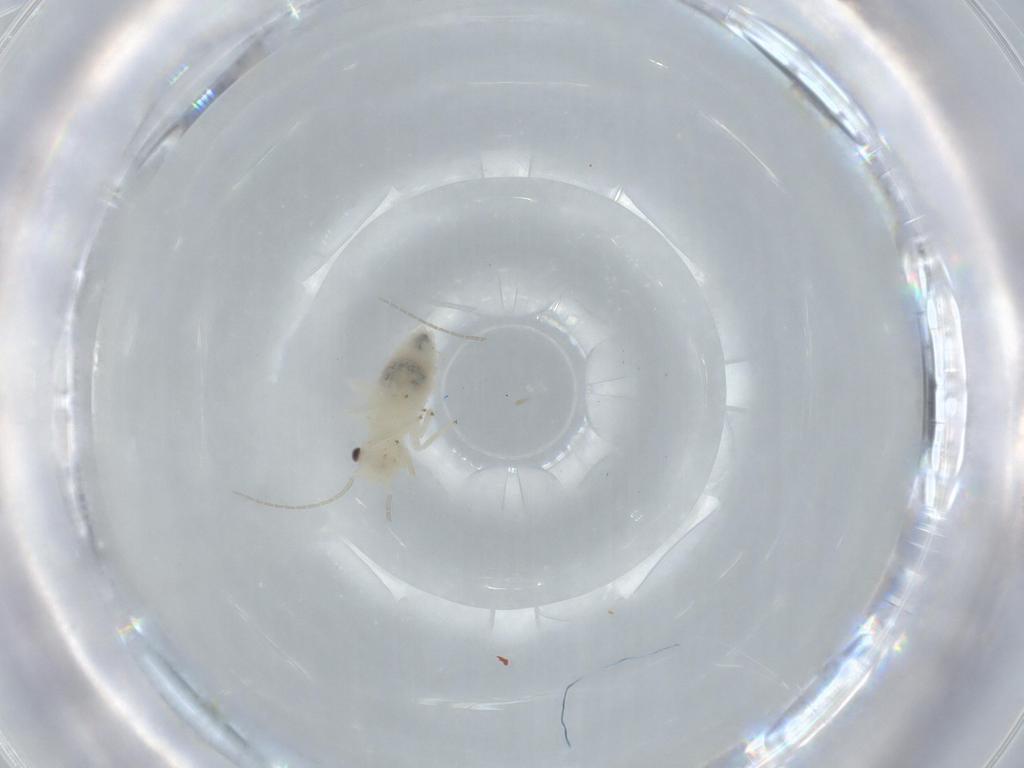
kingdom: Animalia
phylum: Arthropoda
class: Insecta
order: Psocodea
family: Caeciliusidae
